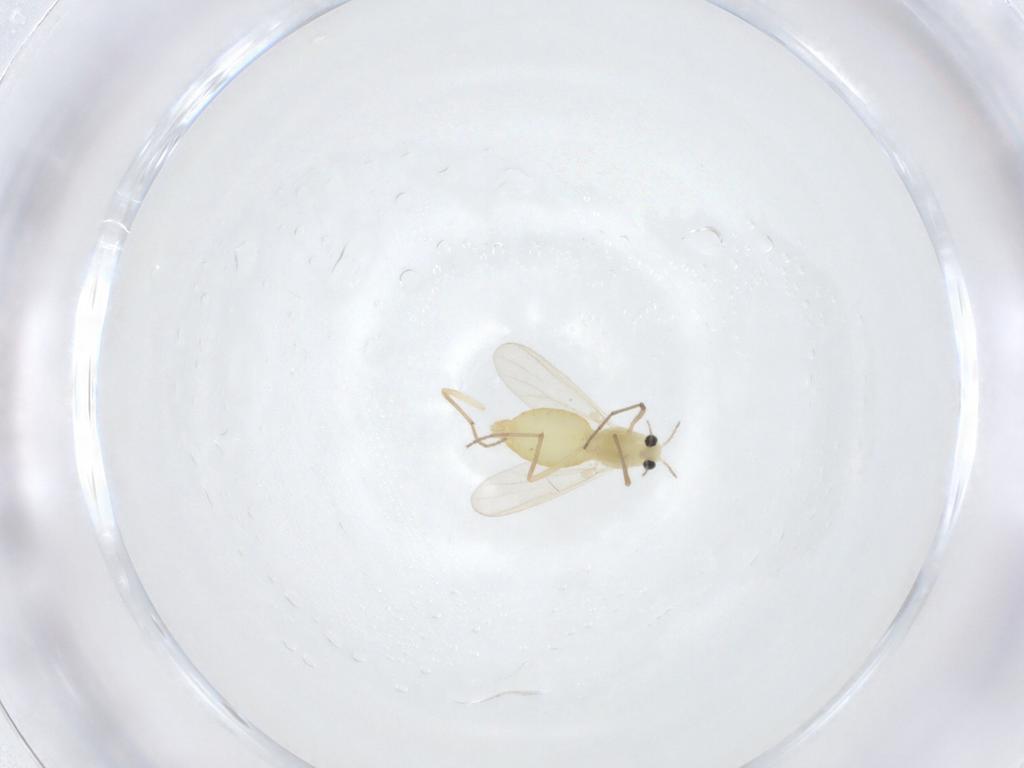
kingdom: Animalia
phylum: Arthropoda
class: Insecta
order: Diptera
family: Chironomidae
